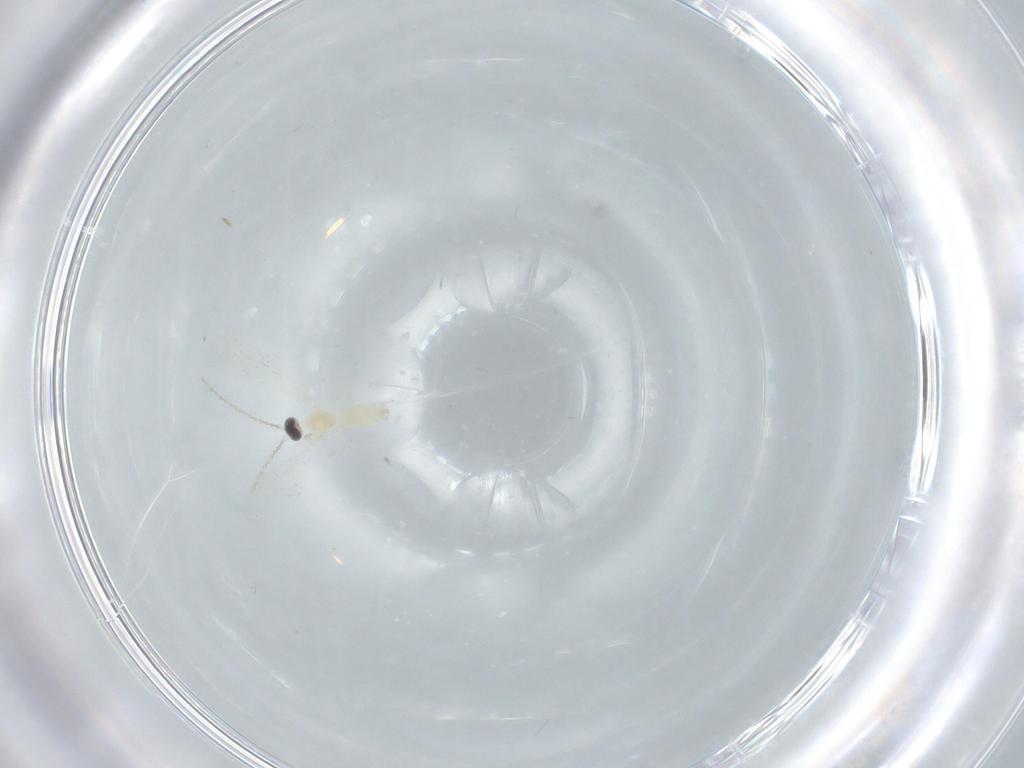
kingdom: Animalia
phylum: Arthropoda
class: Insecta
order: Diptera
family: Cecidomyiidae
